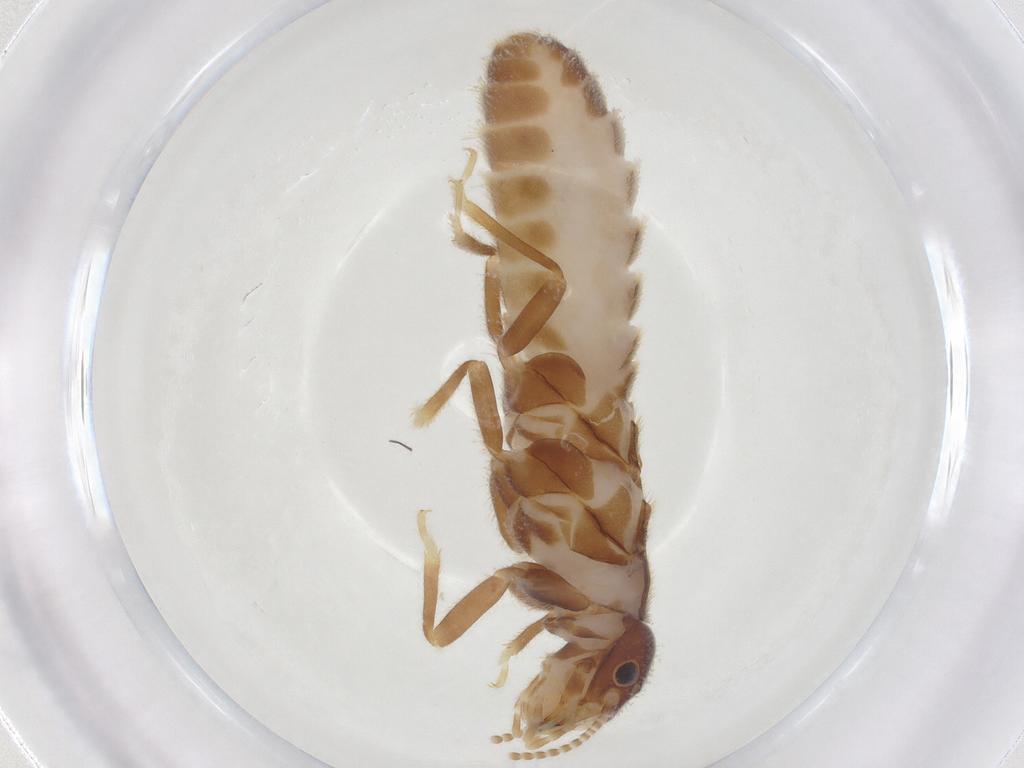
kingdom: Animalia
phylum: Arthropoda
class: Insecta
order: Blattodea
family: Termitidae
